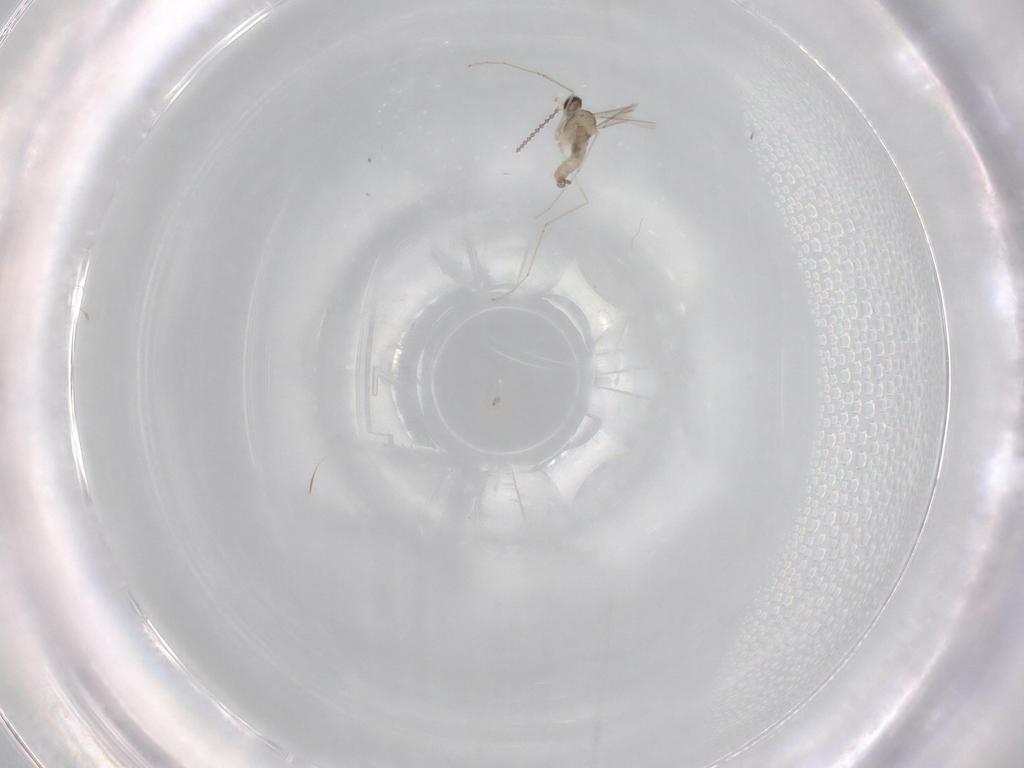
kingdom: Animalia
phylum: Arthropoda
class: Insecta
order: Diptera
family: Cecidomyiidae
